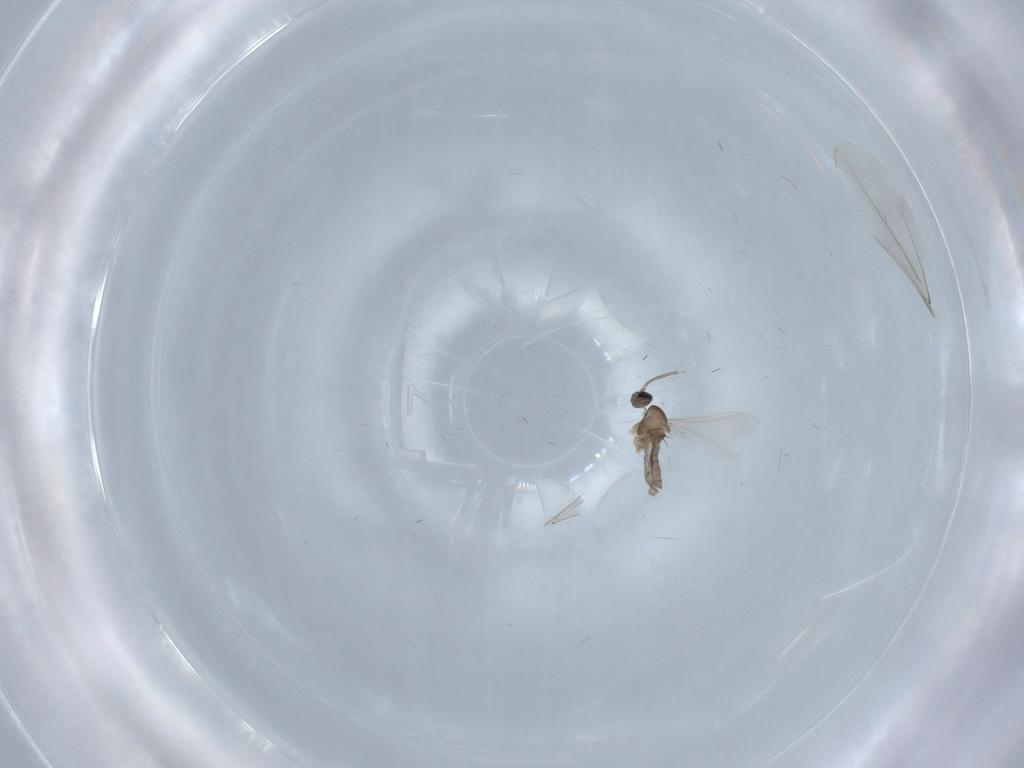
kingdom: Animalia
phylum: Arthropoda
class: Insecta
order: Diptera
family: Cecidomyiidae
